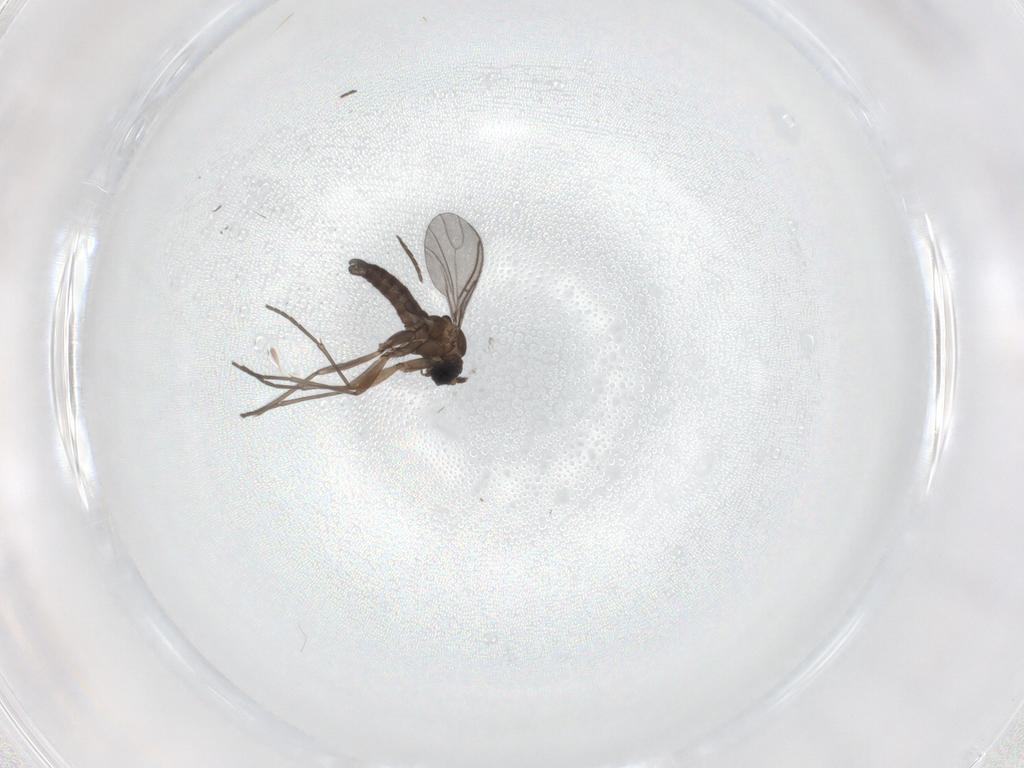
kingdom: Animalia
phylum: Arthropoda
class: Insecta
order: Diptera
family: Sciaridae
